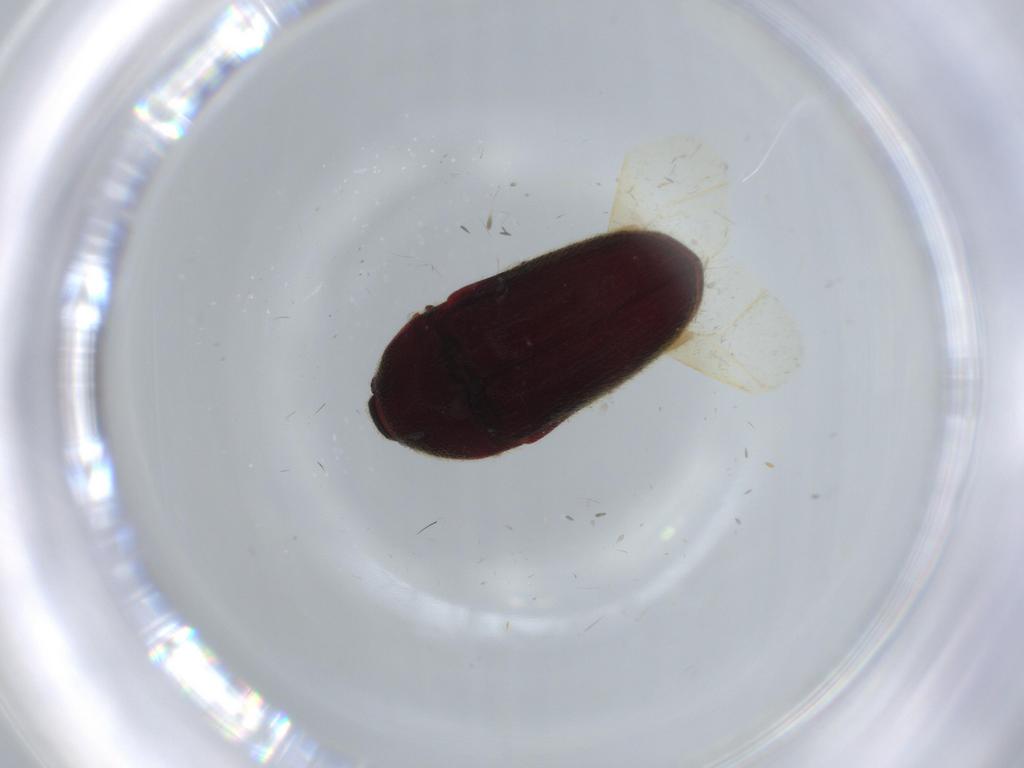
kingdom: Animalia
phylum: Arthropoda
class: Insecta
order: Coleoptera
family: Throscidae
